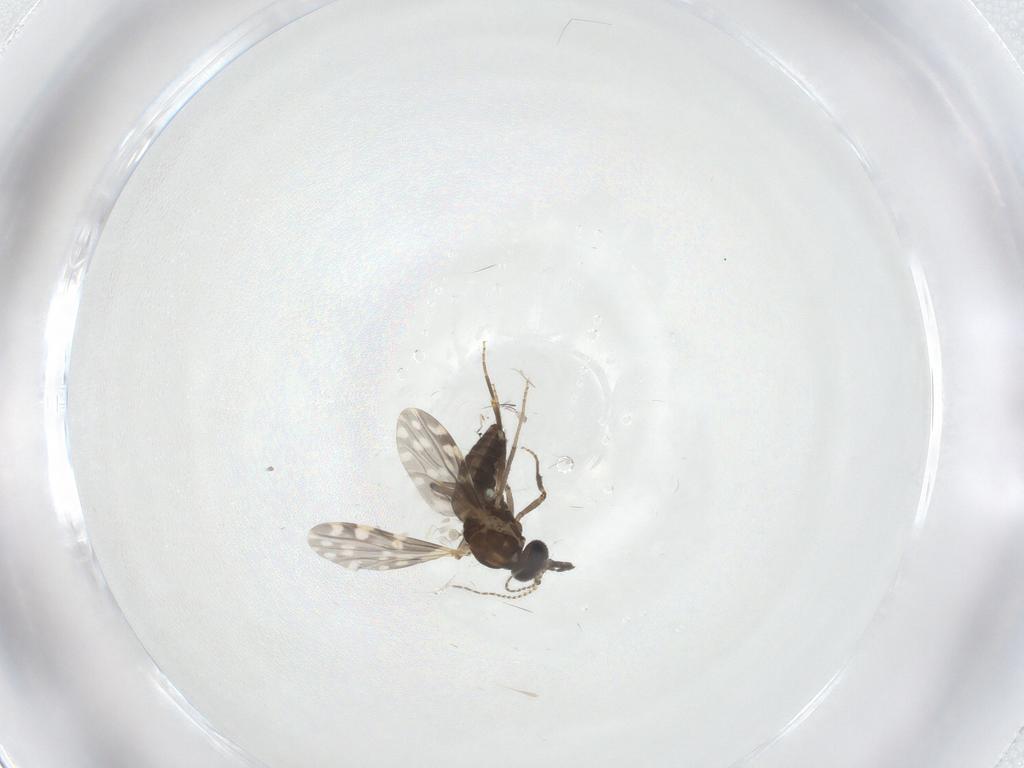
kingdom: Animalia
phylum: Arthropoda
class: Insecta
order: Diptera
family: Ceratopogonidae
